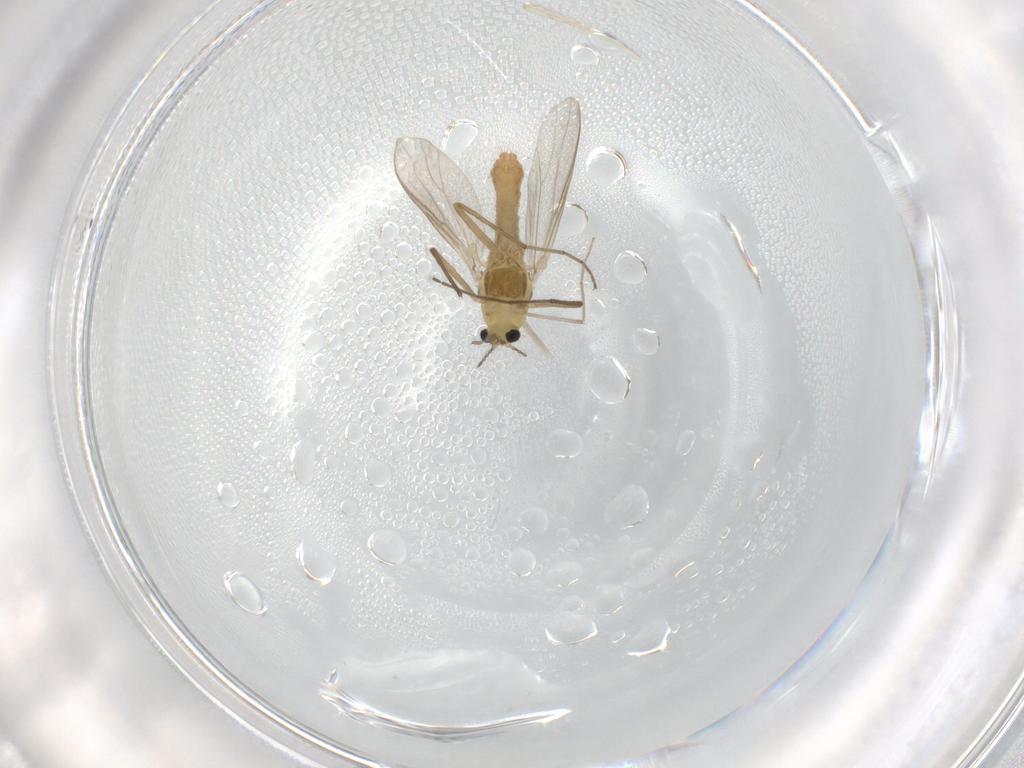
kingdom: Animalia
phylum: Arthropoda
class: Insecta
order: Diptera
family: Chironomidae
